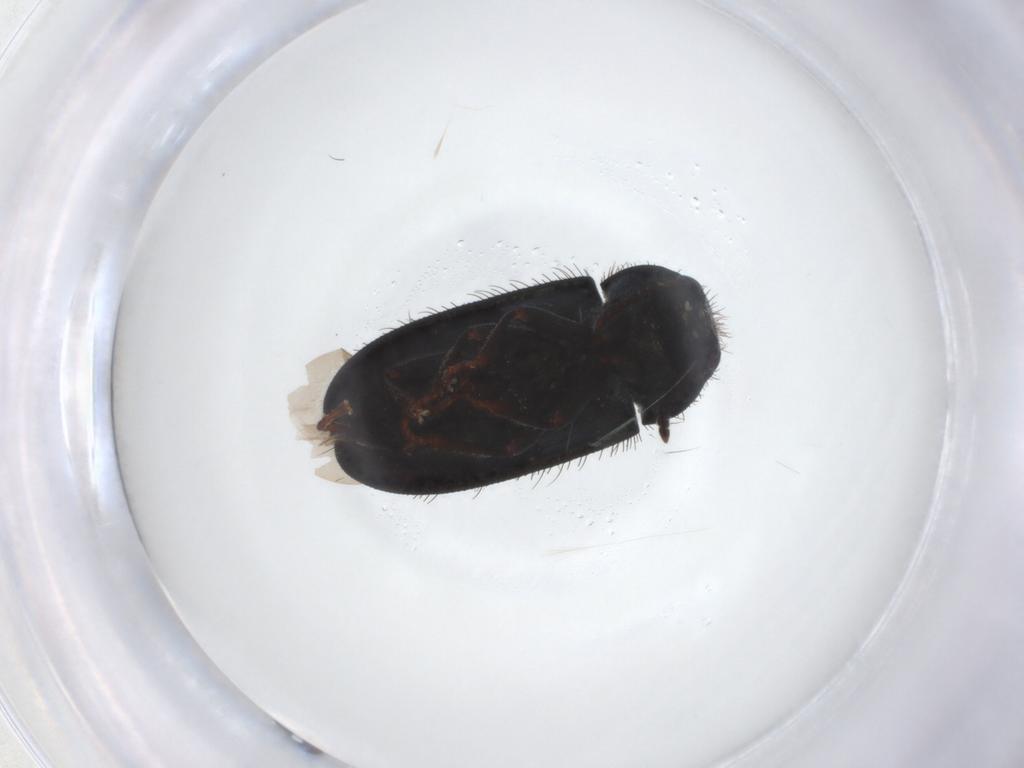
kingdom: Animalia
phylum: Arthropoda
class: Insecta
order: Coleoptera
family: Melyridae
